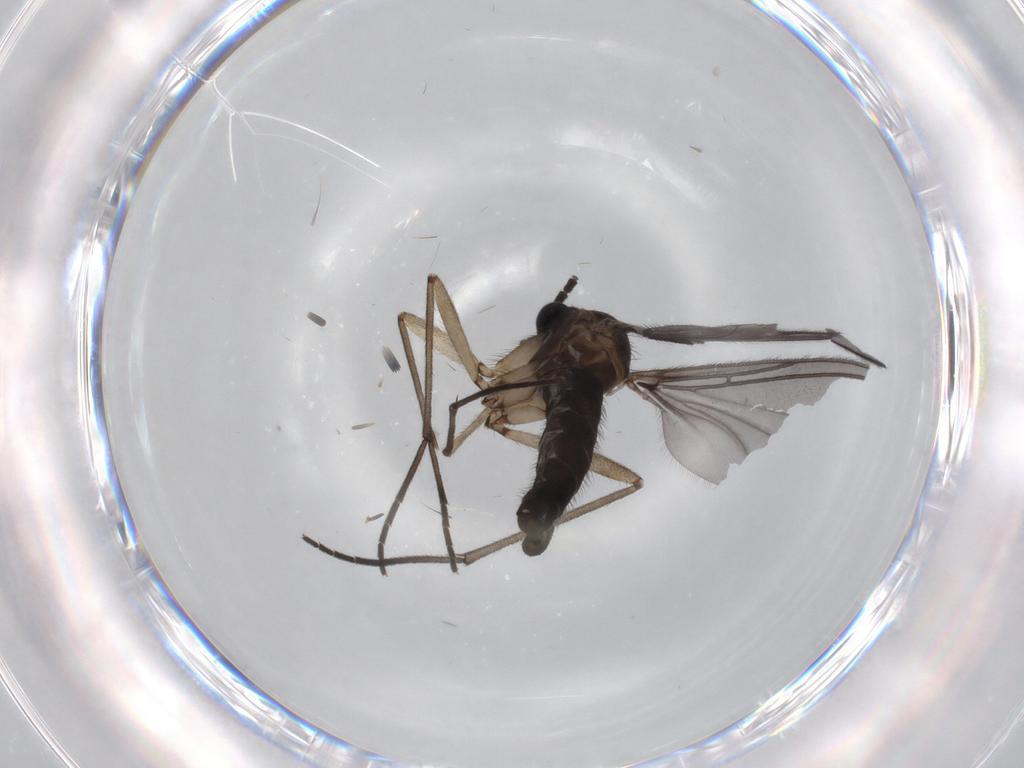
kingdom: Animalia
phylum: Arthropoda
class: Insecta
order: Diptera
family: Sciaridae
